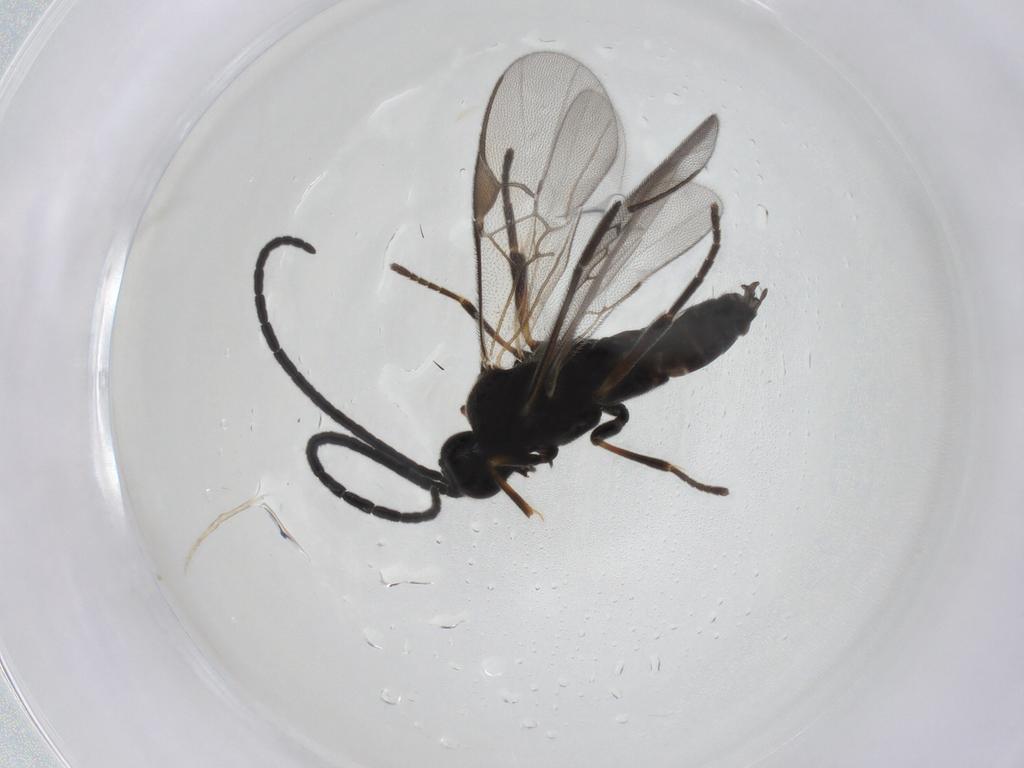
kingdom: Animalia
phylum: Arthropoda
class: Insecta
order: Hymenoptera
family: Braconidae
